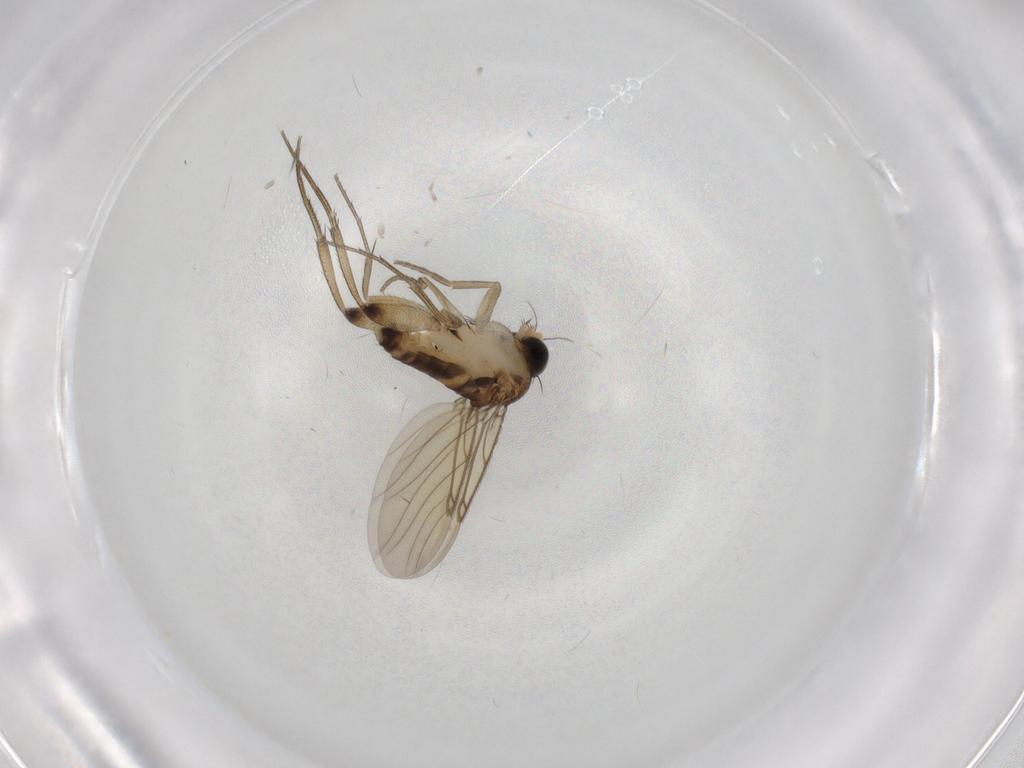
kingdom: Animalia
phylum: Arthropoda
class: Insecta
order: Diptera
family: Phoridae
